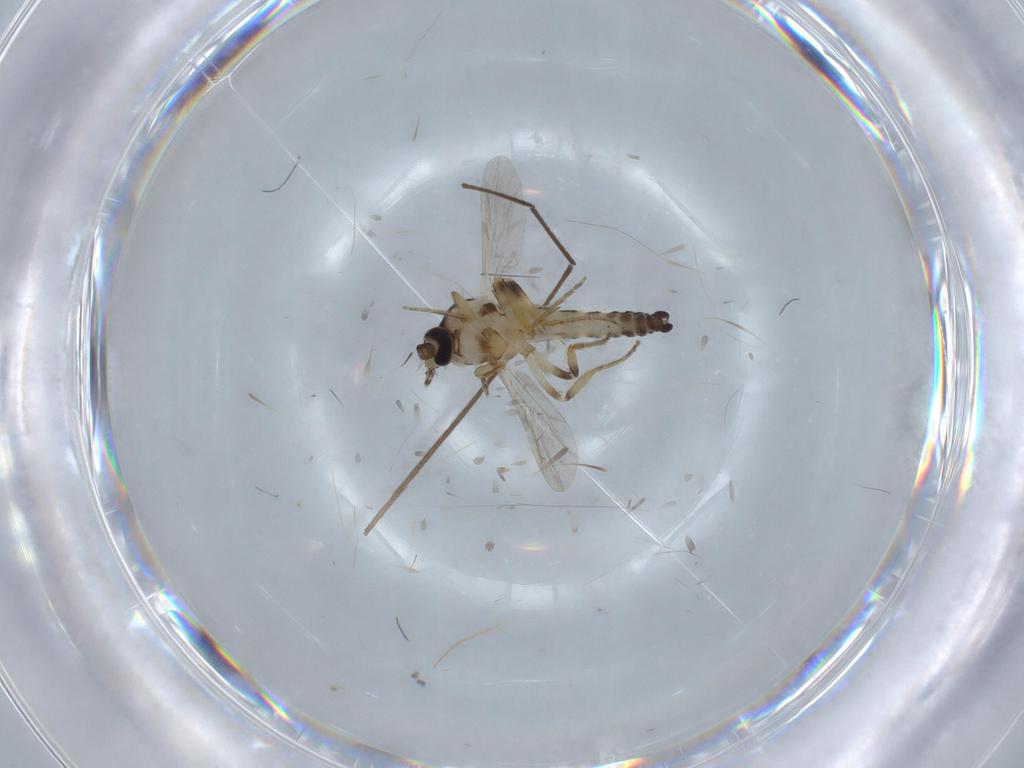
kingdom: Animalia
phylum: Arthropoda
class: Insecta
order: Diptera
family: Ceratopogonidae
